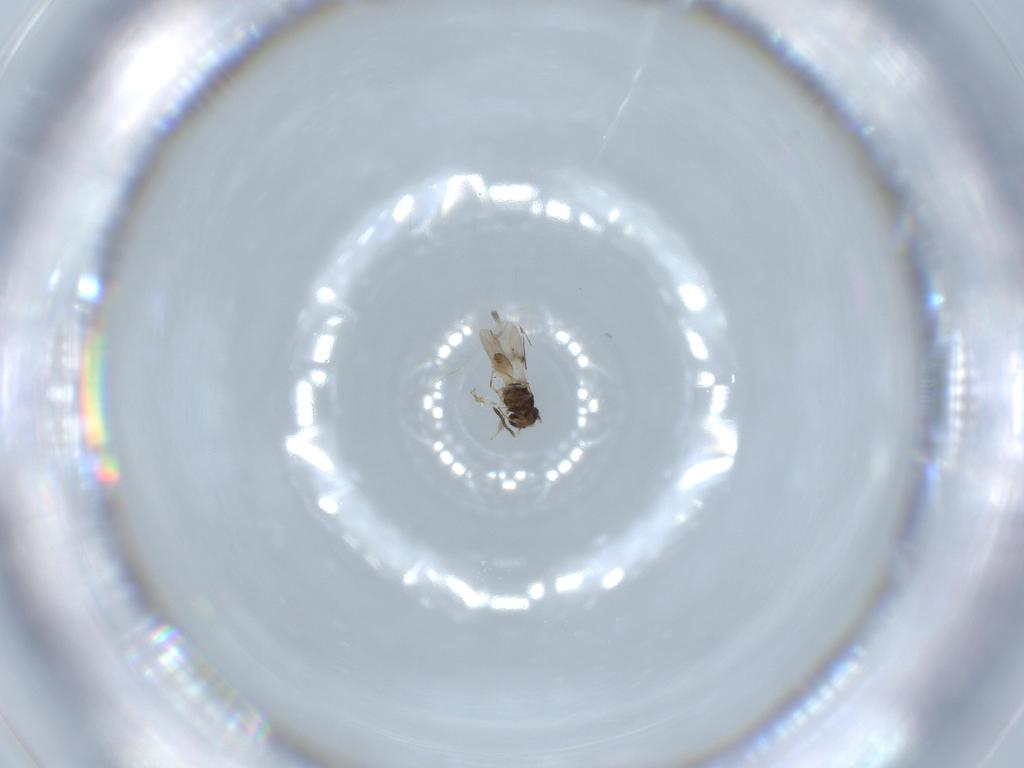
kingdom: Animalia
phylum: Arthropoda
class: Insecta
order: Hymenoptera
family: Scelionidae
